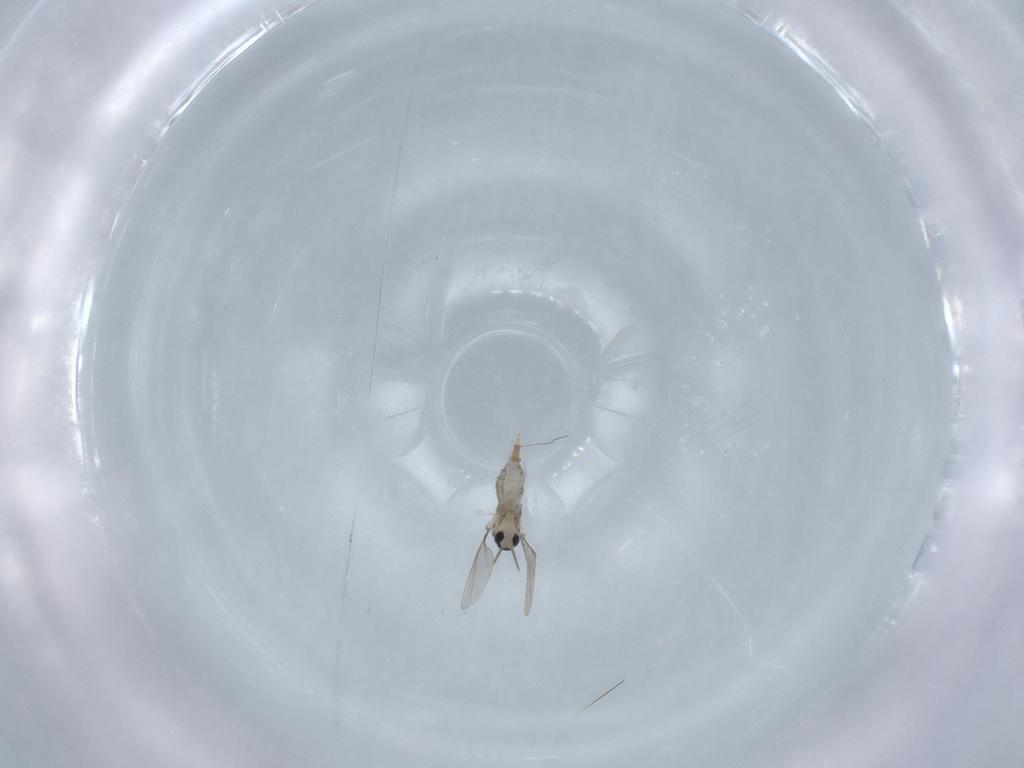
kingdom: Animalia
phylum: Arthropoda
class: Insecta
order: Diptera
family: Cecidomyiidae
